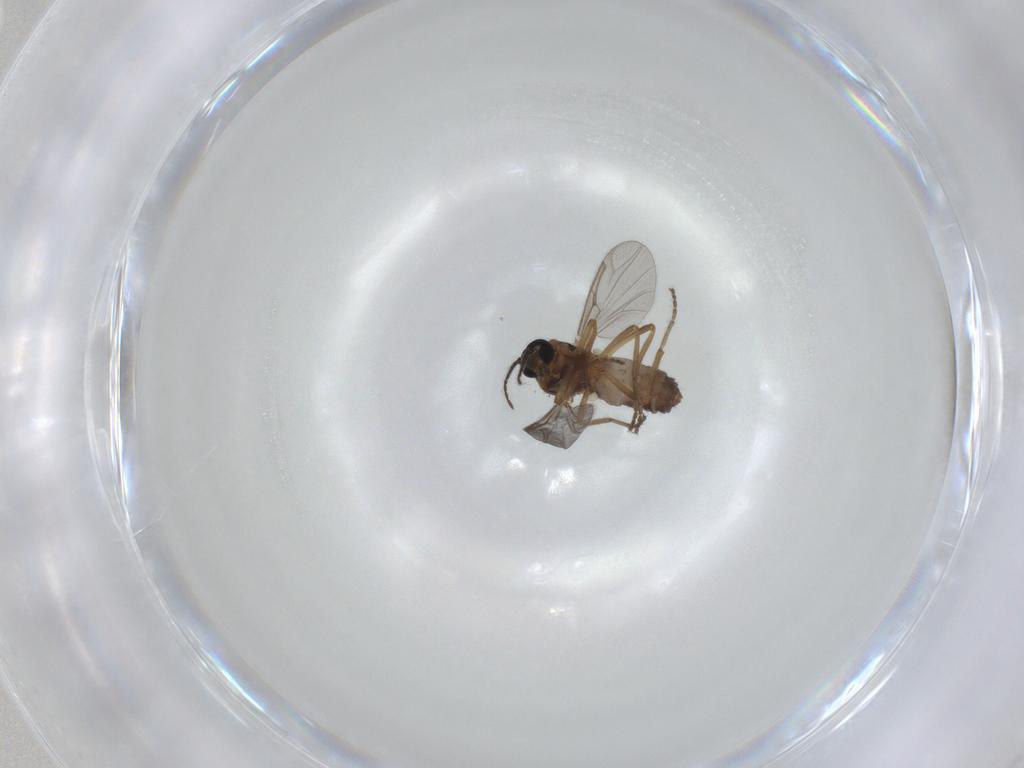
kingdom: Animalia
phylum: Arthropoda
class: Insecta
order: Diptera
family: Ceratopogonidae
